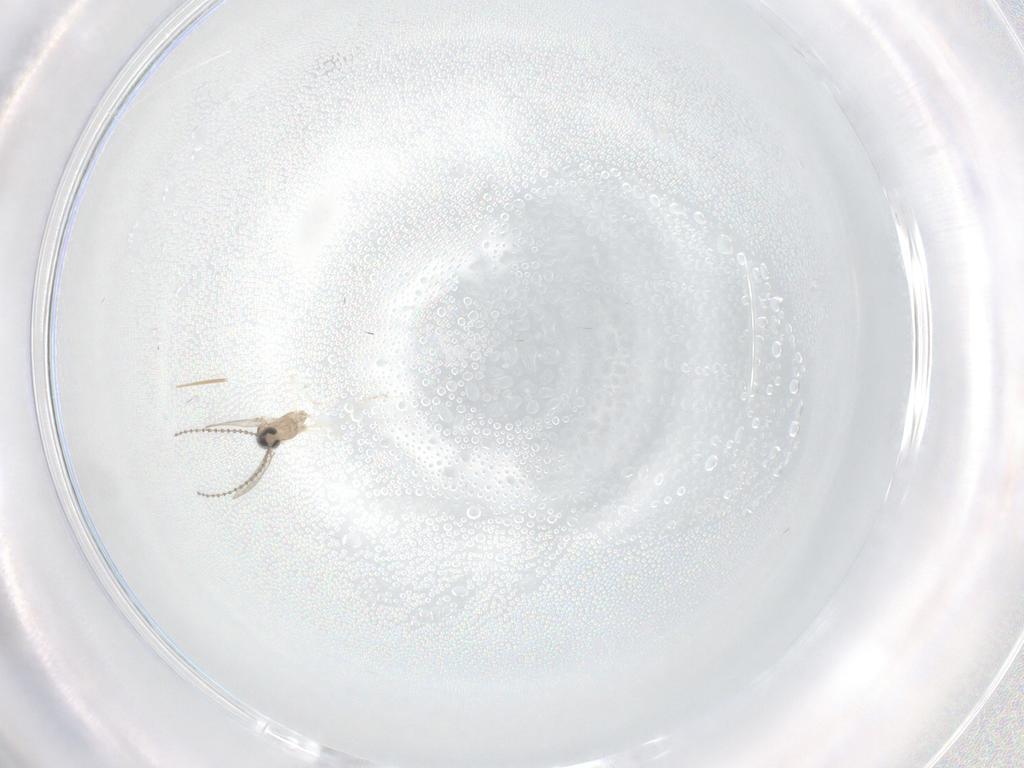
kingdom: Animalia
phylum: Arthropoda
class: Insecta
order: Diptera
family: Cecidomyiidae
